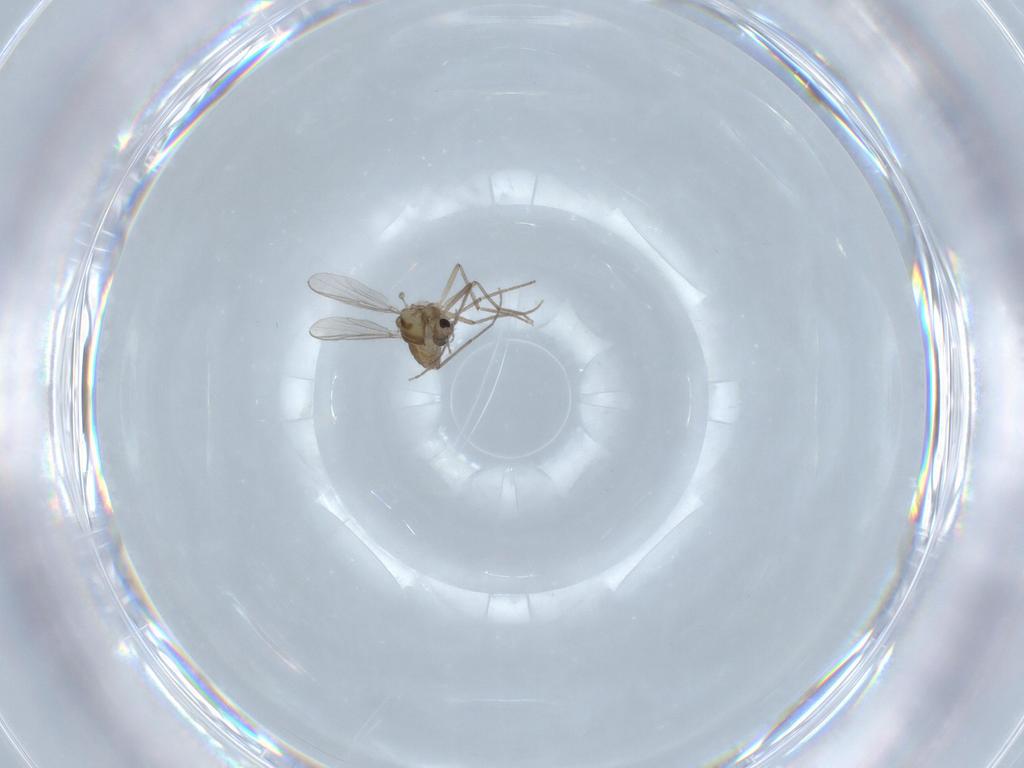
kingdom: Animalia
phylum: Arthropoda
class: Insecta
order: Diptera
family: Chironomidae
